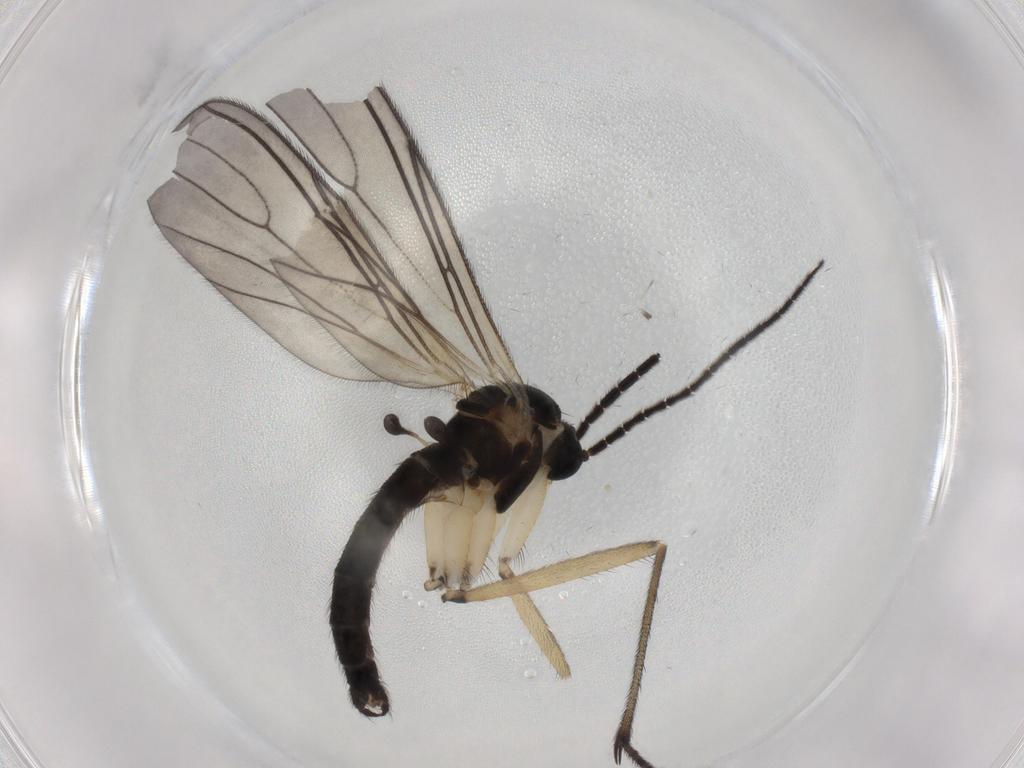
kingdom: Animalia
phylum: Arthropoda
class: Insecta
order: Diptera
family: Sciaridae
